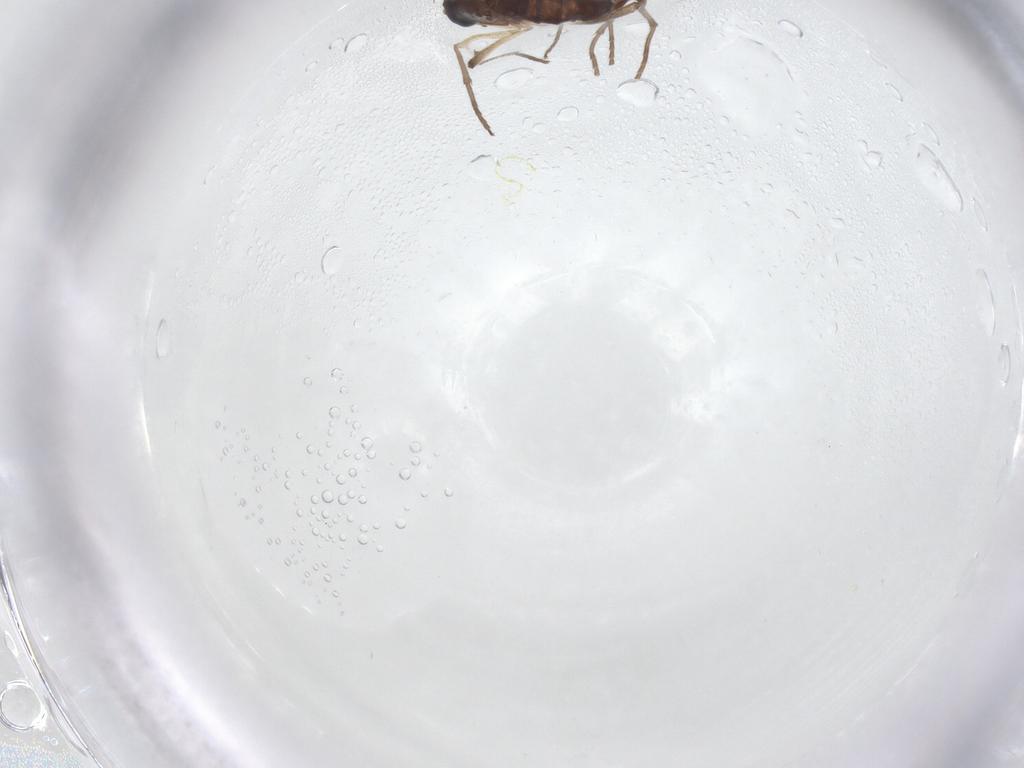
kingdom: Animalia
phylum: Arthropoda
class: Insecta
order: Diptera
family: Sciaridae
